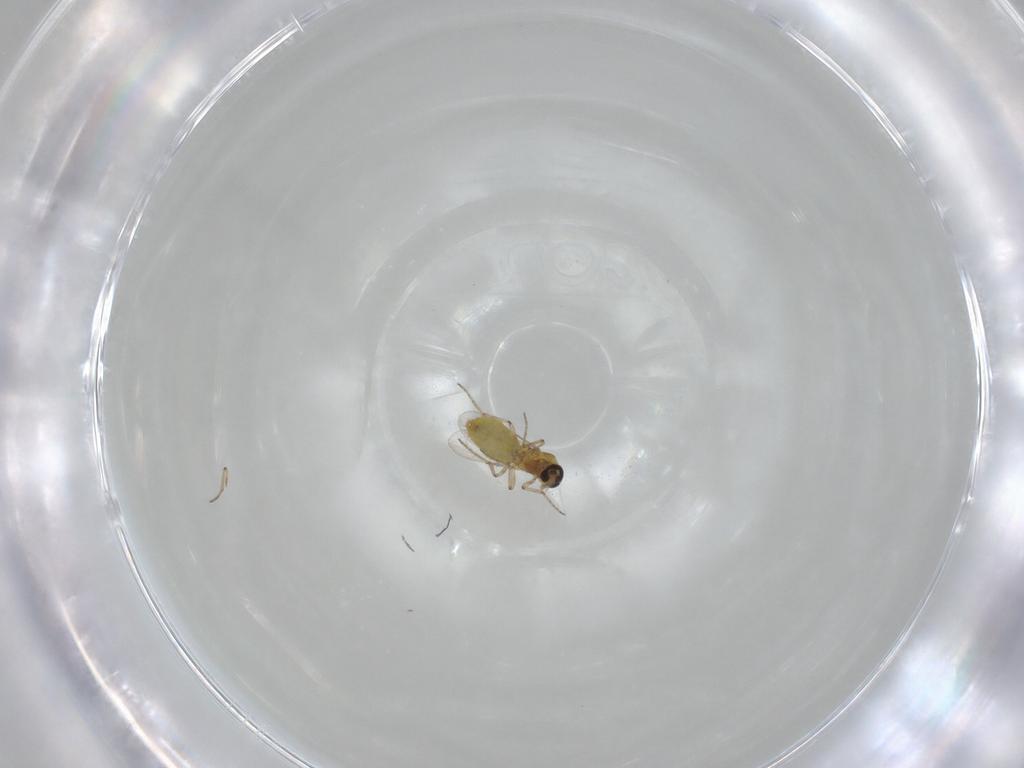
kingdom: Animalia
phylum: Arthropoda
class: Insecta
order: Diptera
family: Ceratopogonidae
